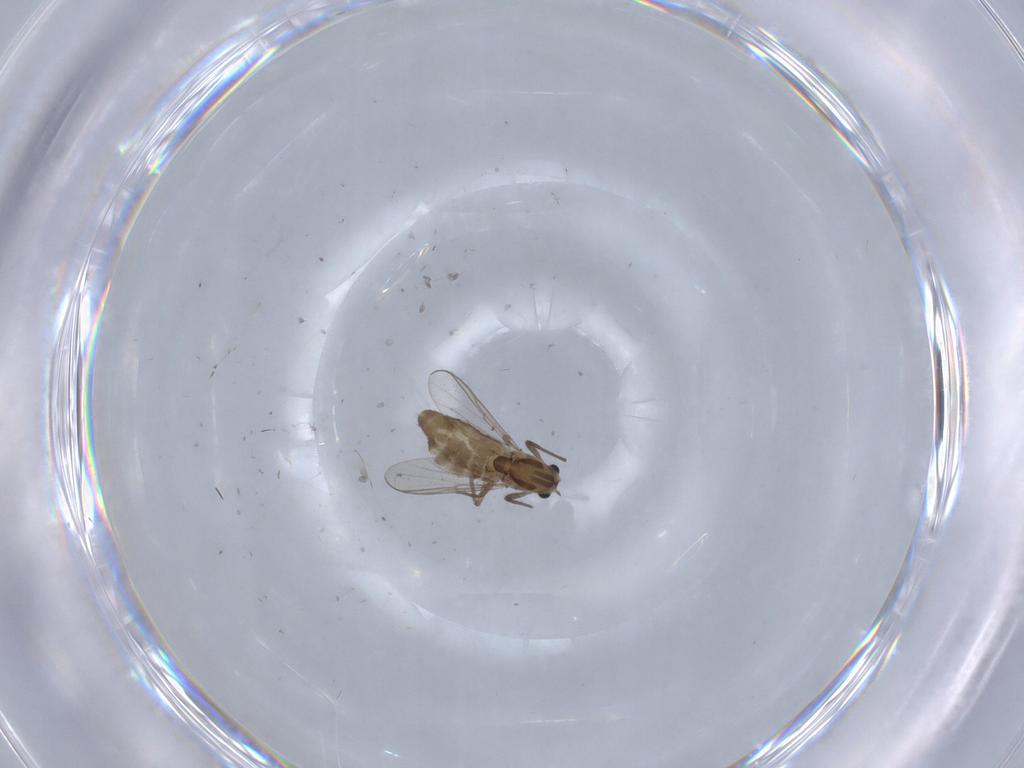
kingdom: Animalia
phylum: Arthropoda
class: Insecta
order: Diptera
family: Chironomidae
